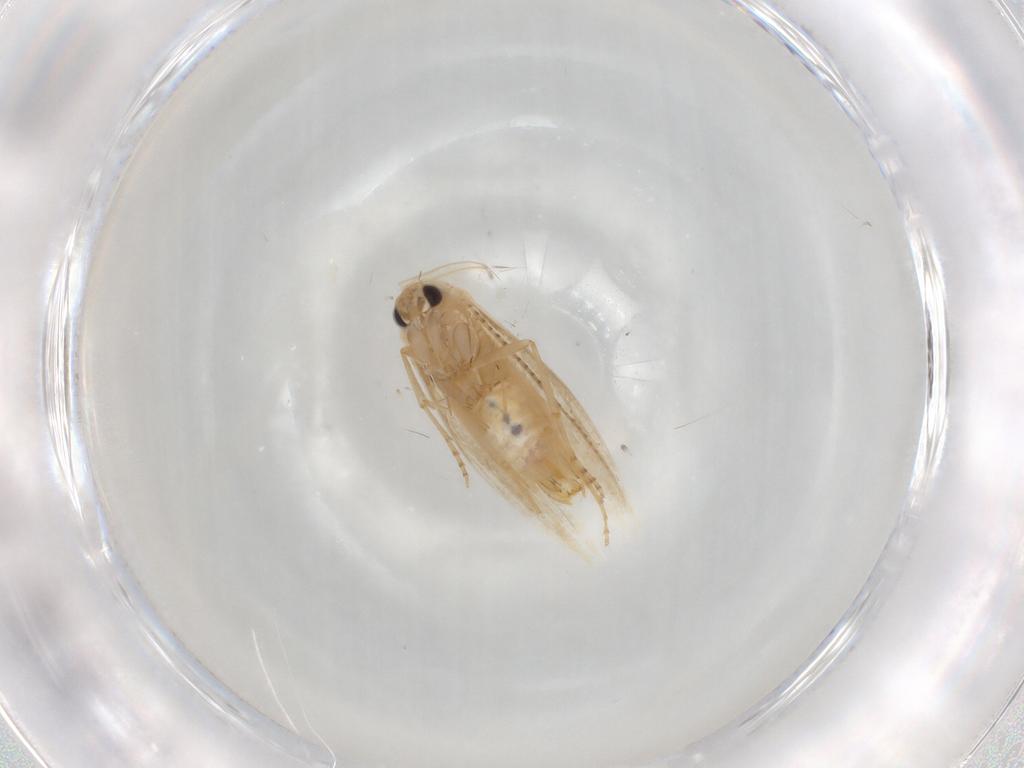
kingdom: Animalia
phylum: Arthropoda
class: Insecta
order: Lepidoptera
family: Bucculatricidae
